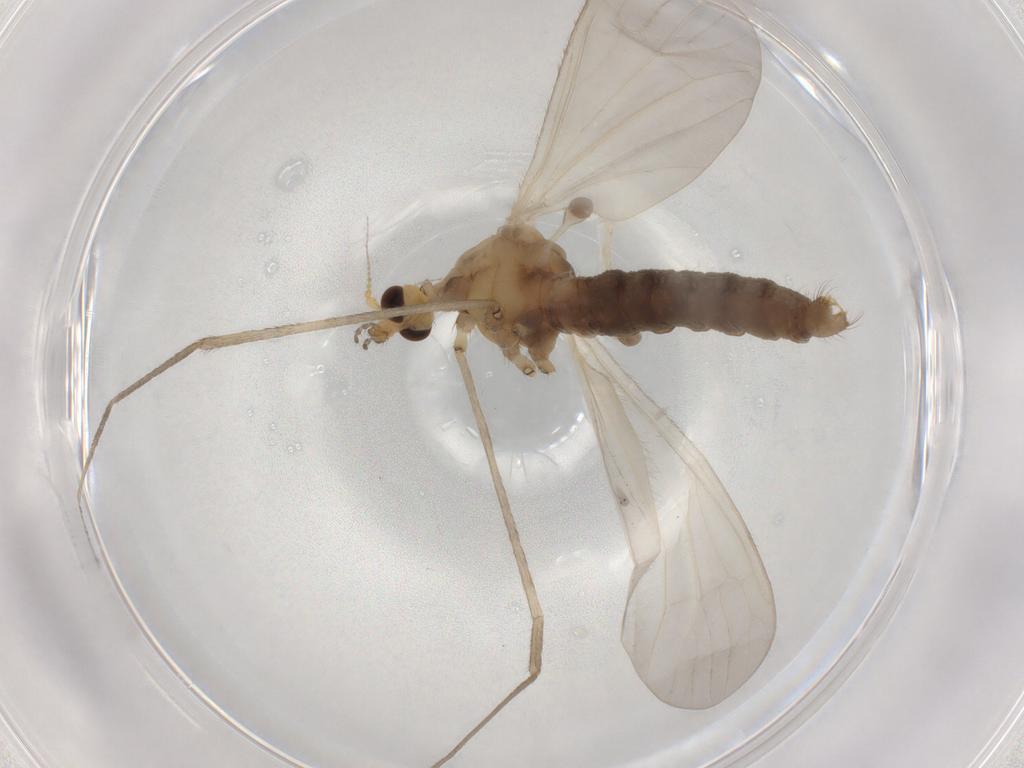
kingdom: Animalia
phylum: Arthropoda
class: Insecta
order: Diptera
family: Limoniidae
